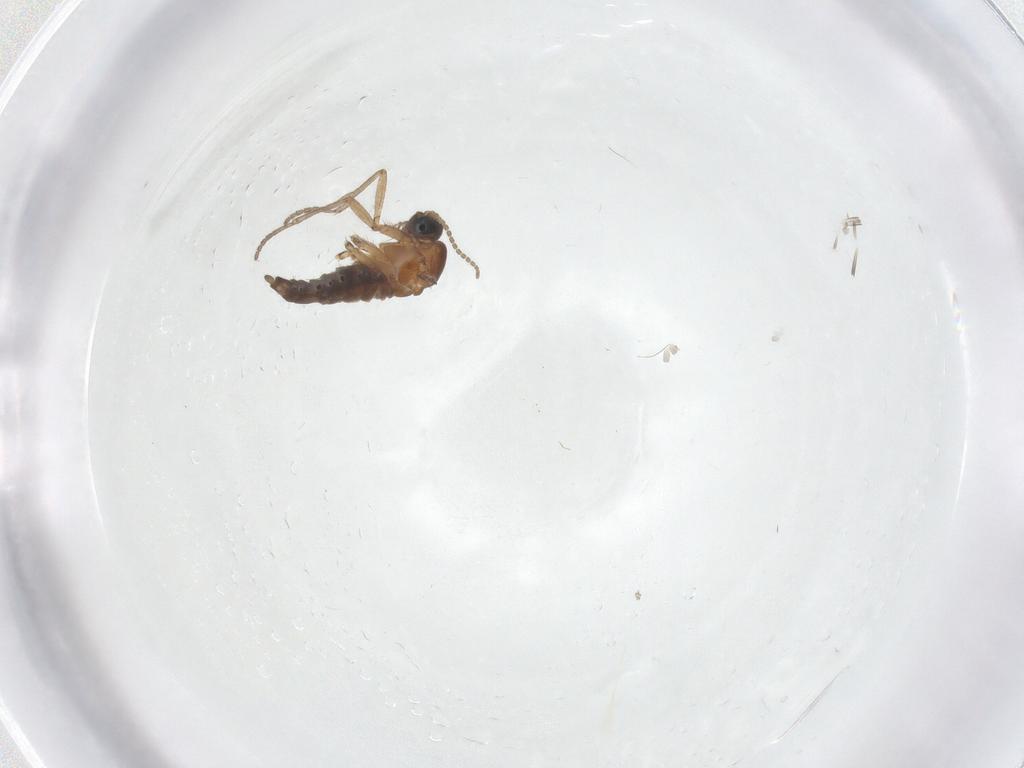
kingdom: Animalia
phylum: Arthropoda
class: Insecta
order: Diptera
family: Sciaridae
